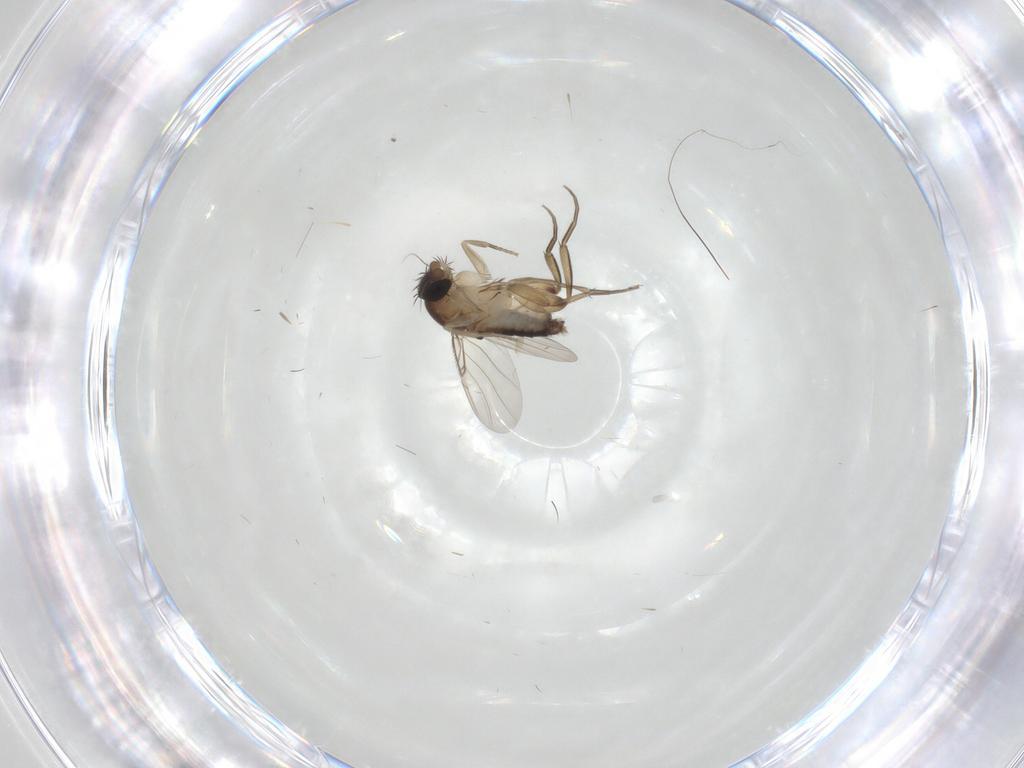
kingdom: Animalia
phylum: Arthropoda
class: Insecta
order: Diptera
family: Phoridae
